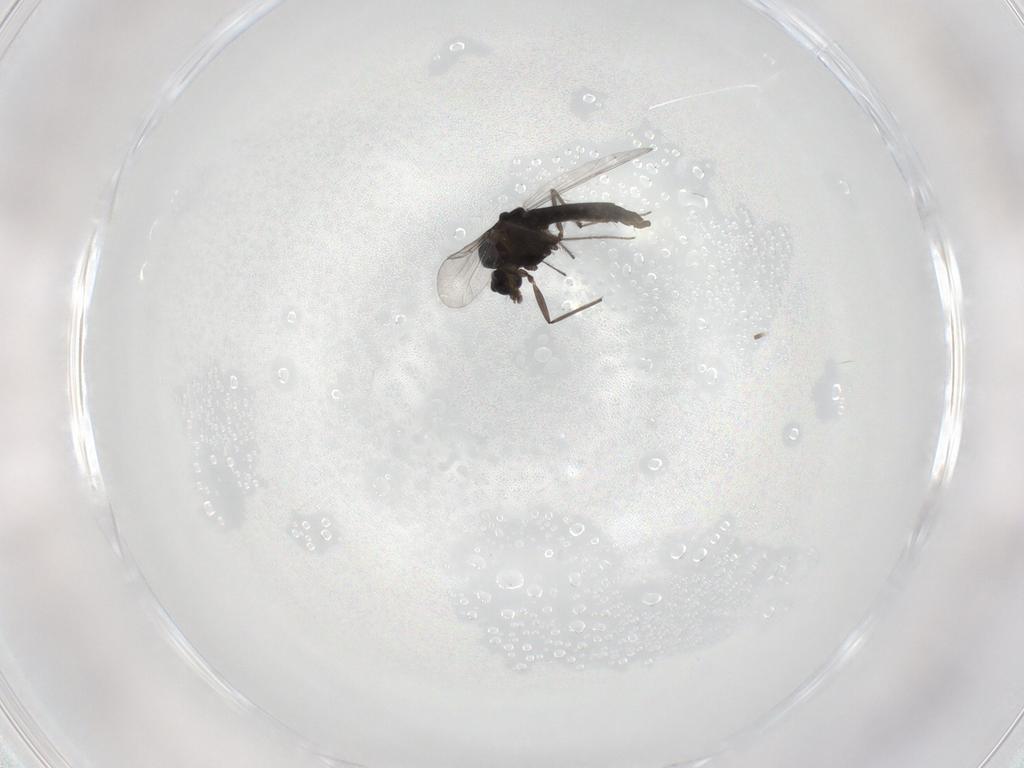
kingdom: Animalia
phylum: Arthropoda
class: Insecta
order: Diptera
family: Chironomidae
